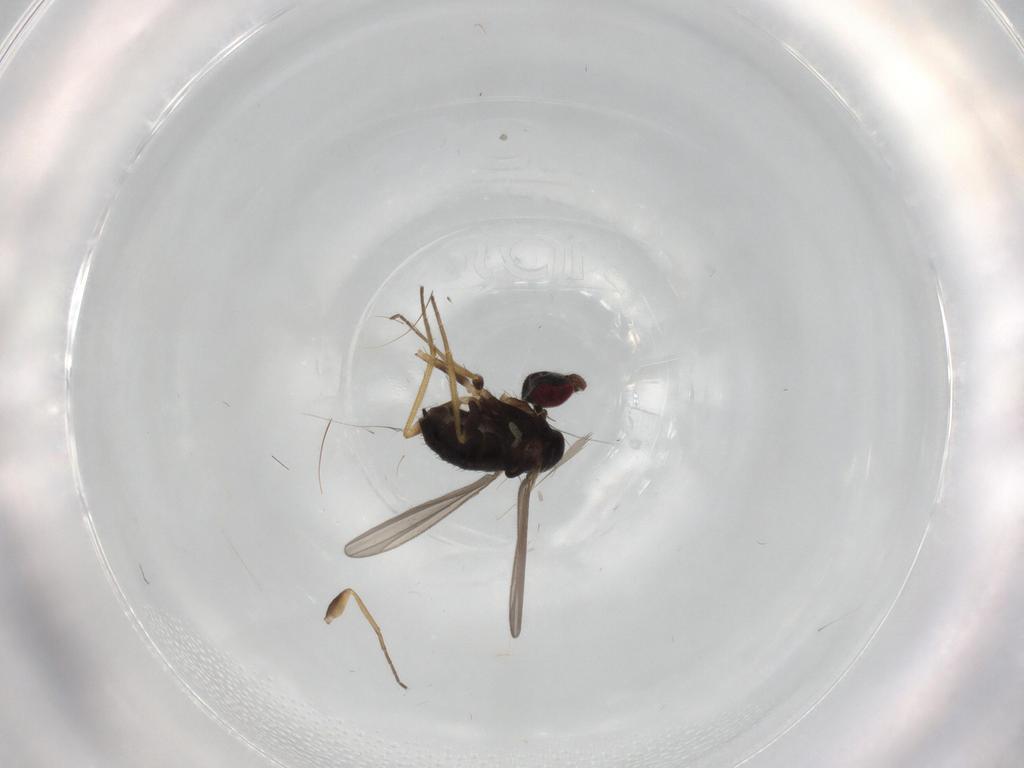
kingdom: Animalia
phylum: Arthropoda
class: Insecta
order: Diptera
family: Dolichopodidae
